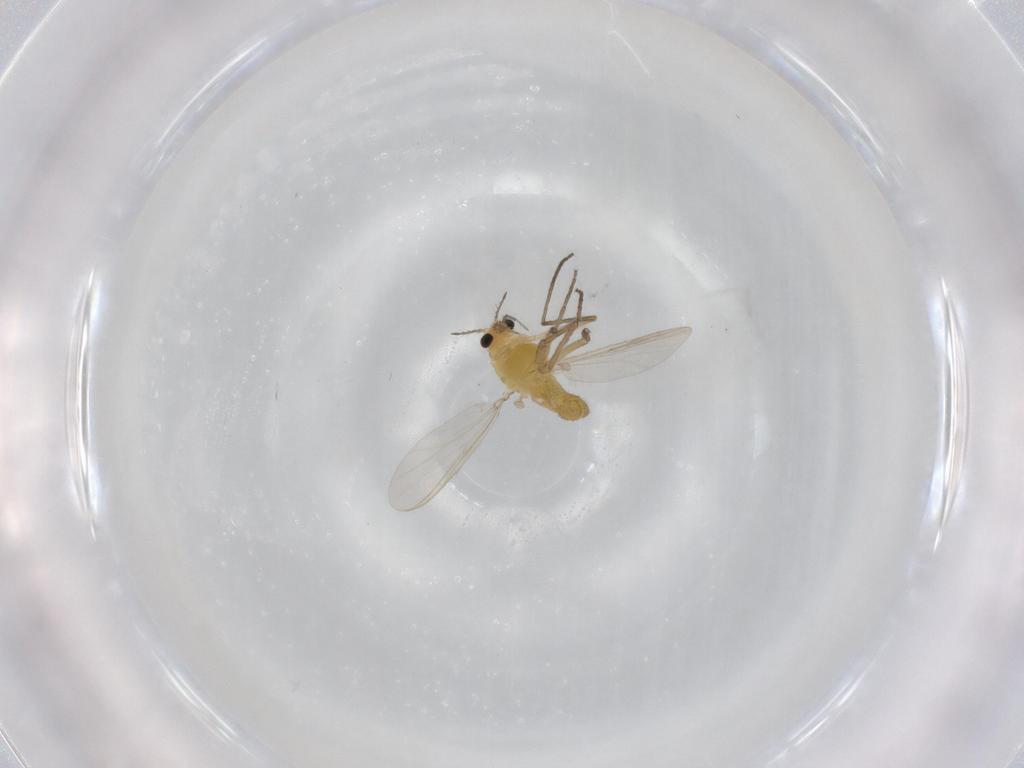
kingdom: Animalia
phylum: Arthropoda
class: Insecta
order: Diptera
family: Chironomidae
